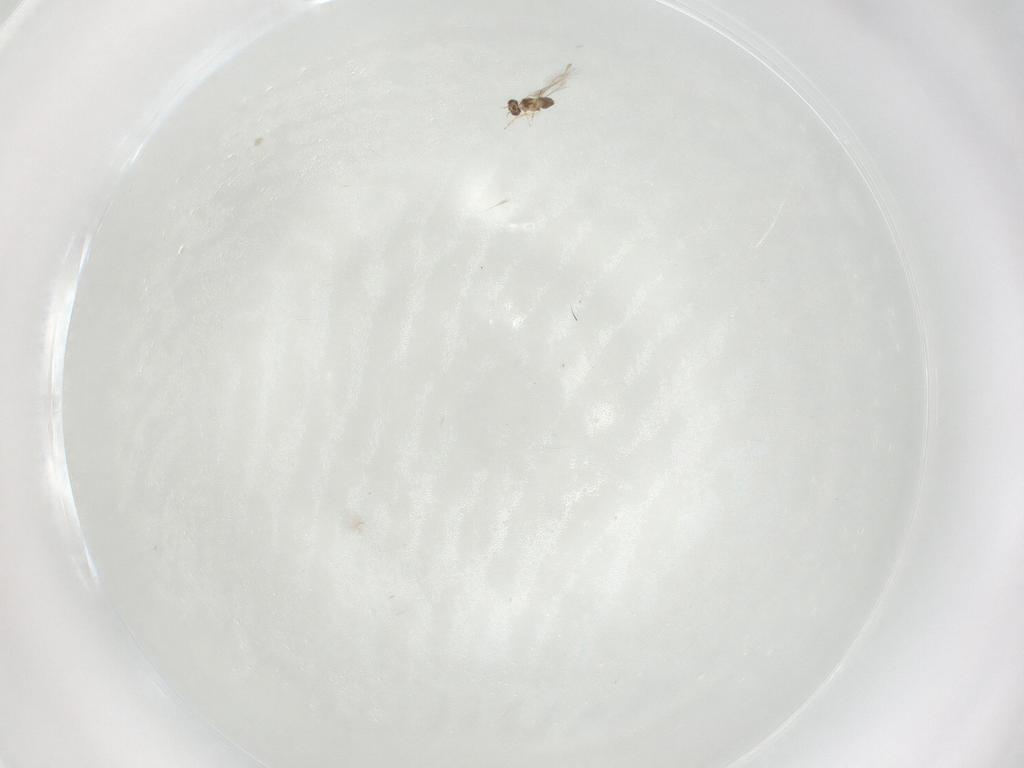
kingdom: Animalia
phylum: Arthropoda
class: Insecta
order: Hymenoptera
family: Mymaridae
